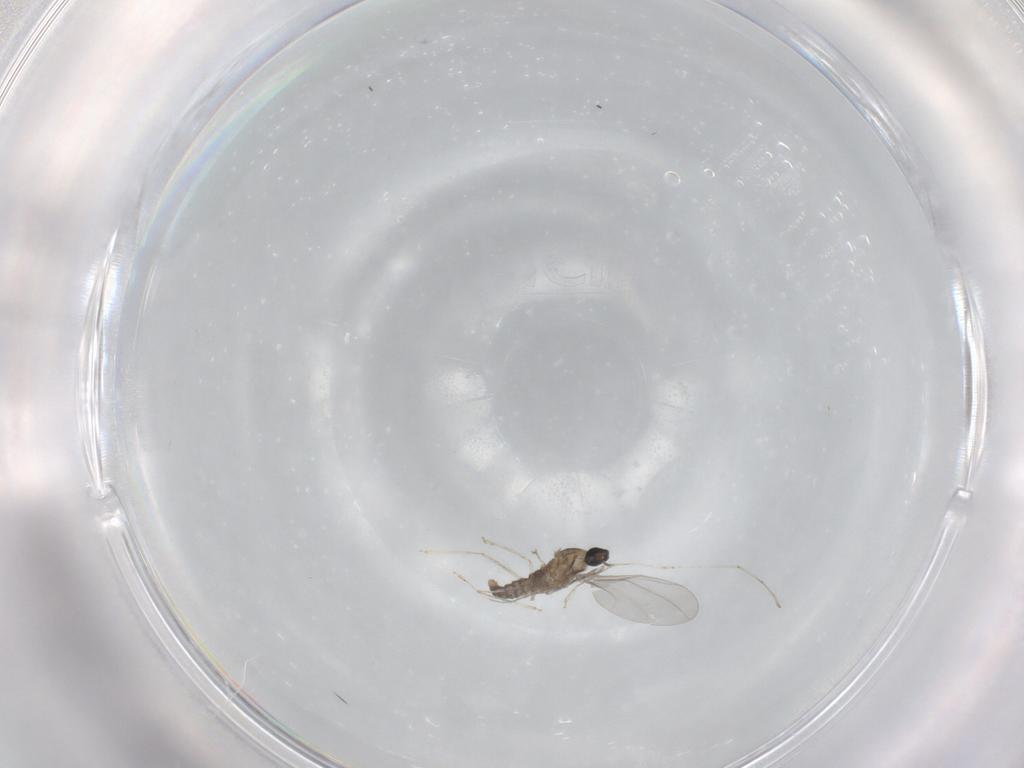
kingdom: Animalia
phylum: Arthropoda
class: Insecta
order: Diptera
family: Cecidomyiidae
